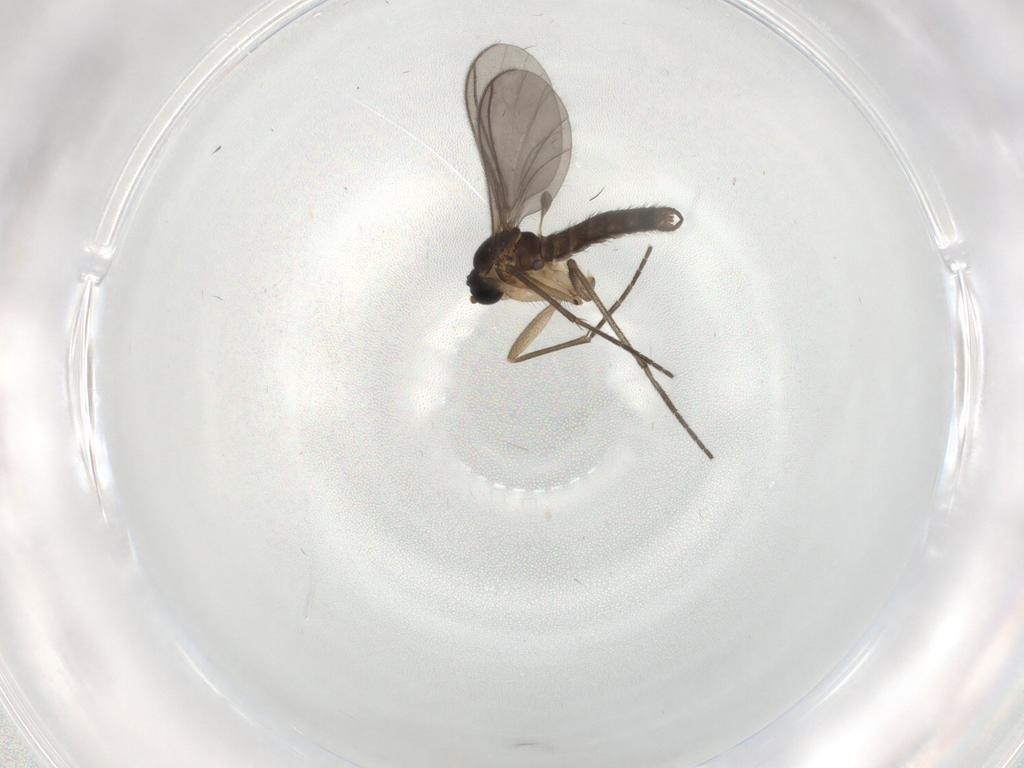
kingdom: Animalia
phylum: Arthropoda
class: Insecta
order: Diptera
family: Sciaridae
